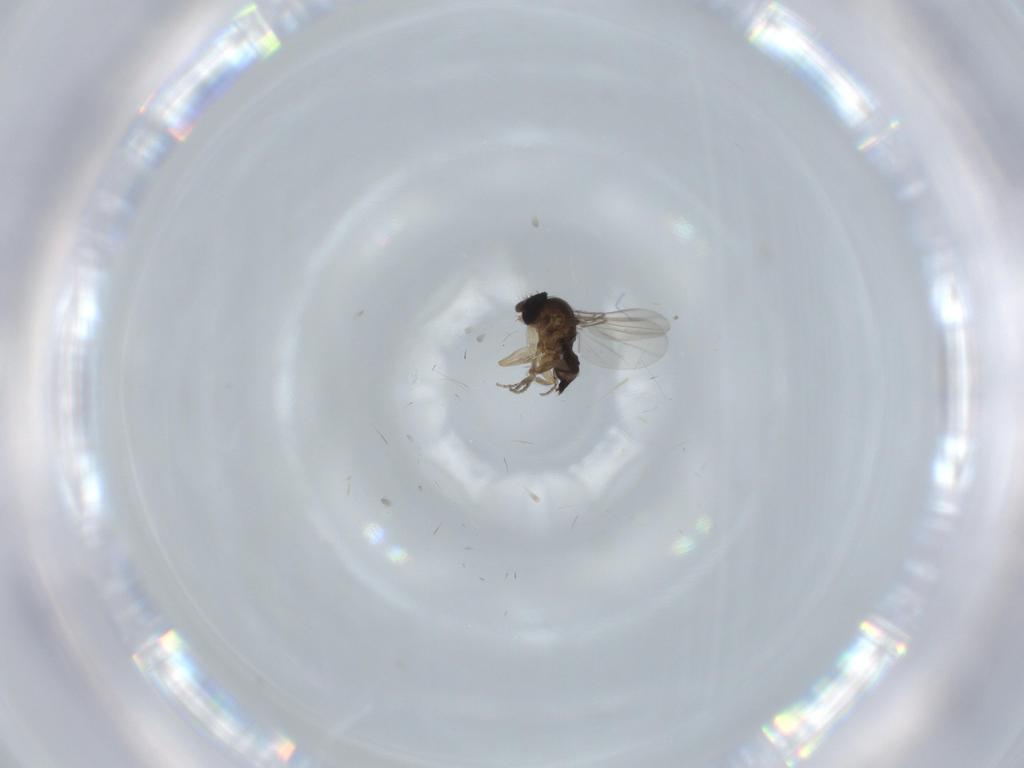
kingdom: Animalia
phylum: Arthropoda
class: Insecta
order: Diptera
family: Phoridae
